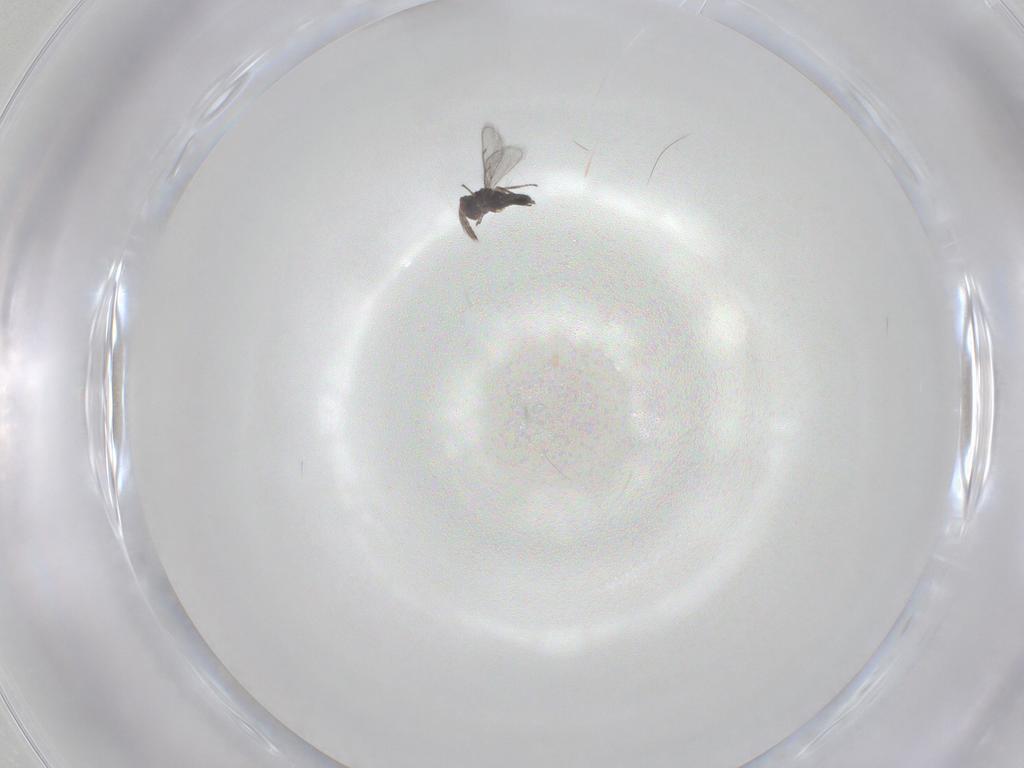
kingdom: Animalia
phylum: Arthropoda
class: Insecta
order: Hymenoptera
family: Eulophidae
